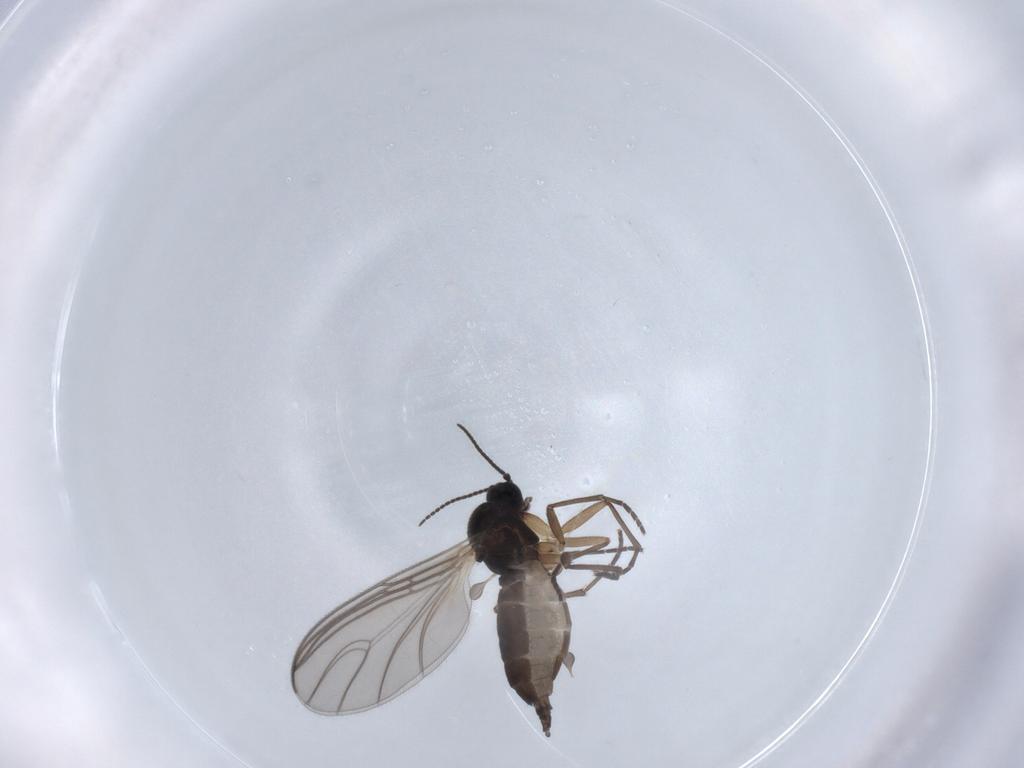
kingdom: Animalia
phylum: Arthropoda
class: Insecta
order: Diptera
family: Sciaridae
